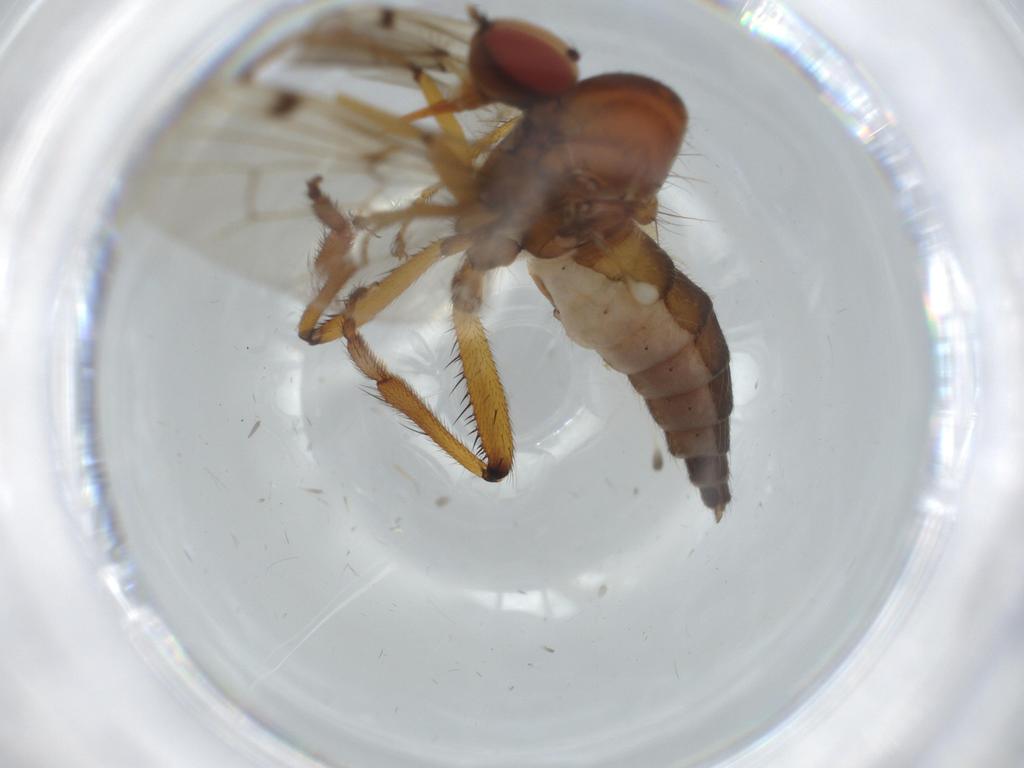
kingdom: Animalia
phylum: Arthropoda
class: Insecta
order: Diptera
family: Hybotidae
